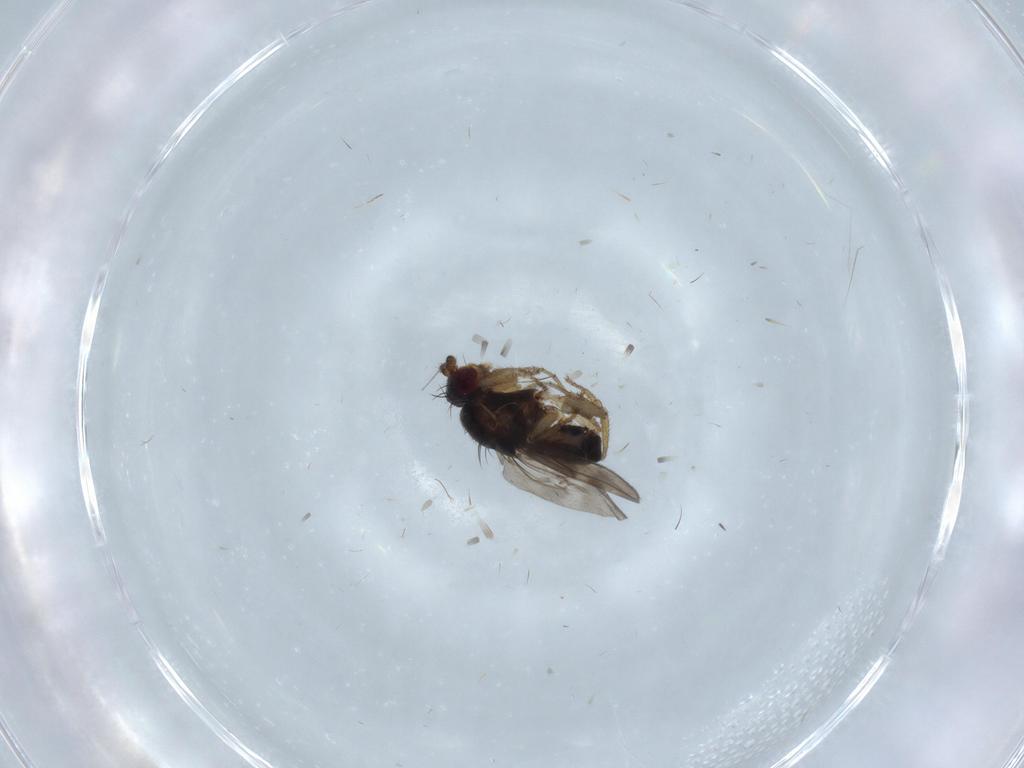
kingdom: Animalia
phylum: Arthropoda
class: Insecta
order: Diptera
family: Sphaeroceridae
